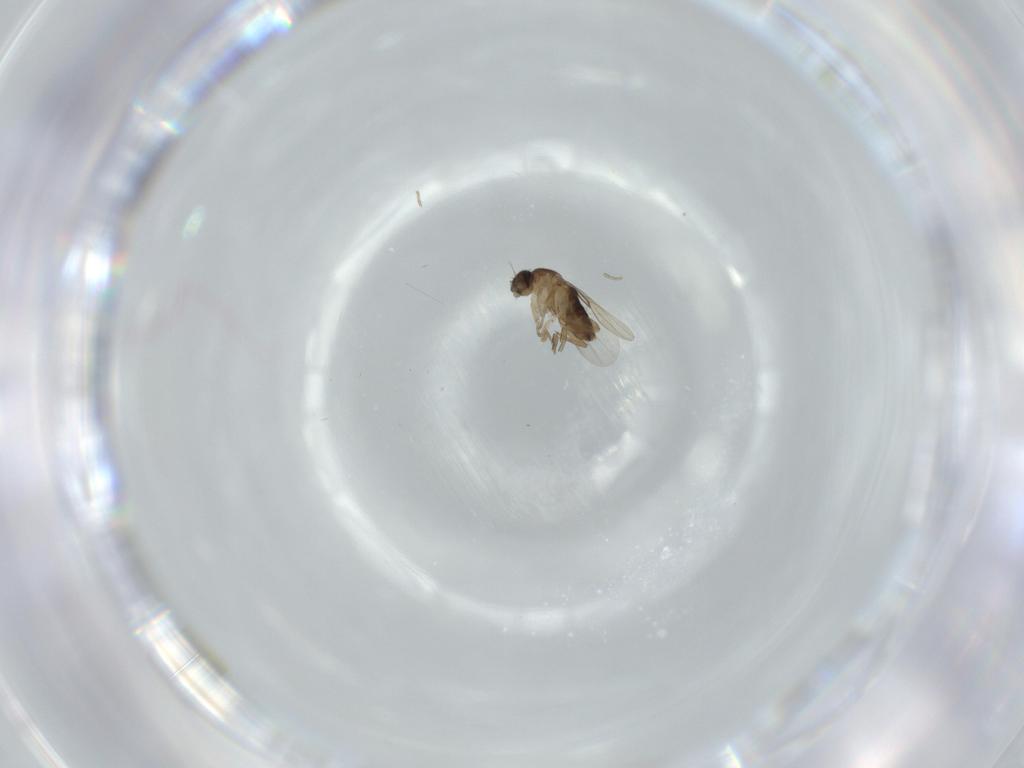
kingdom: Animalia
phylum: Arthropoda
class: Insecta
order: Diptera
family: Phoridae
